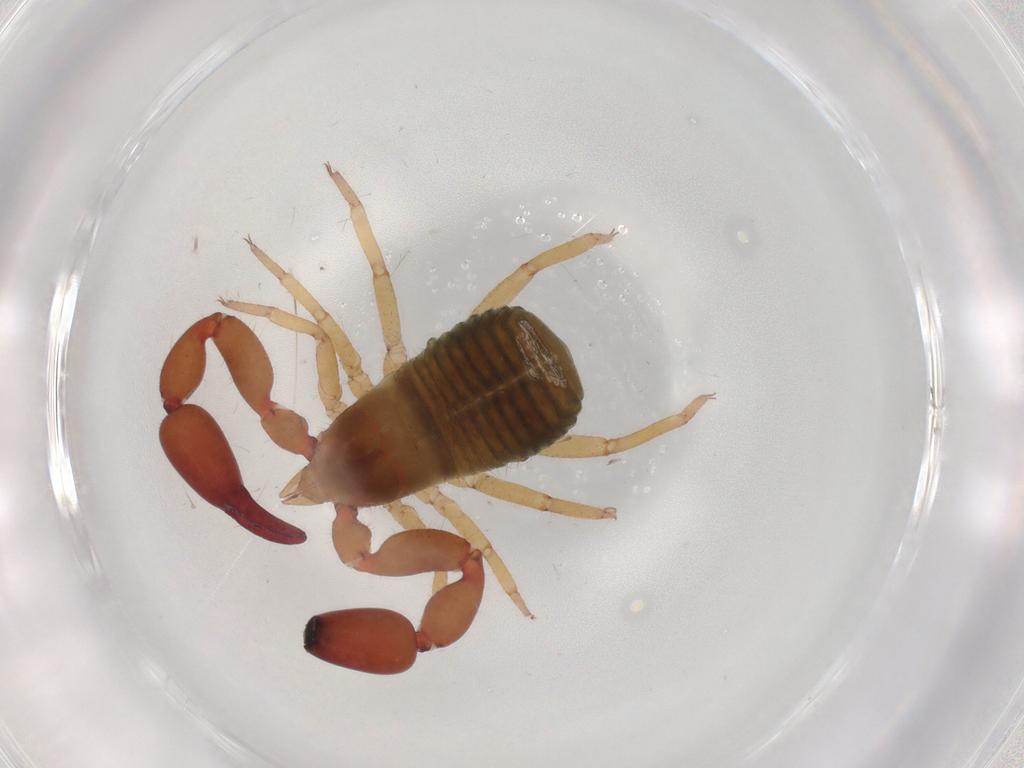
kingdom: Animalia
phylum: Arthropoda
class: Arachnida
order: Pseudoscorpiones
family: Chernetidae
